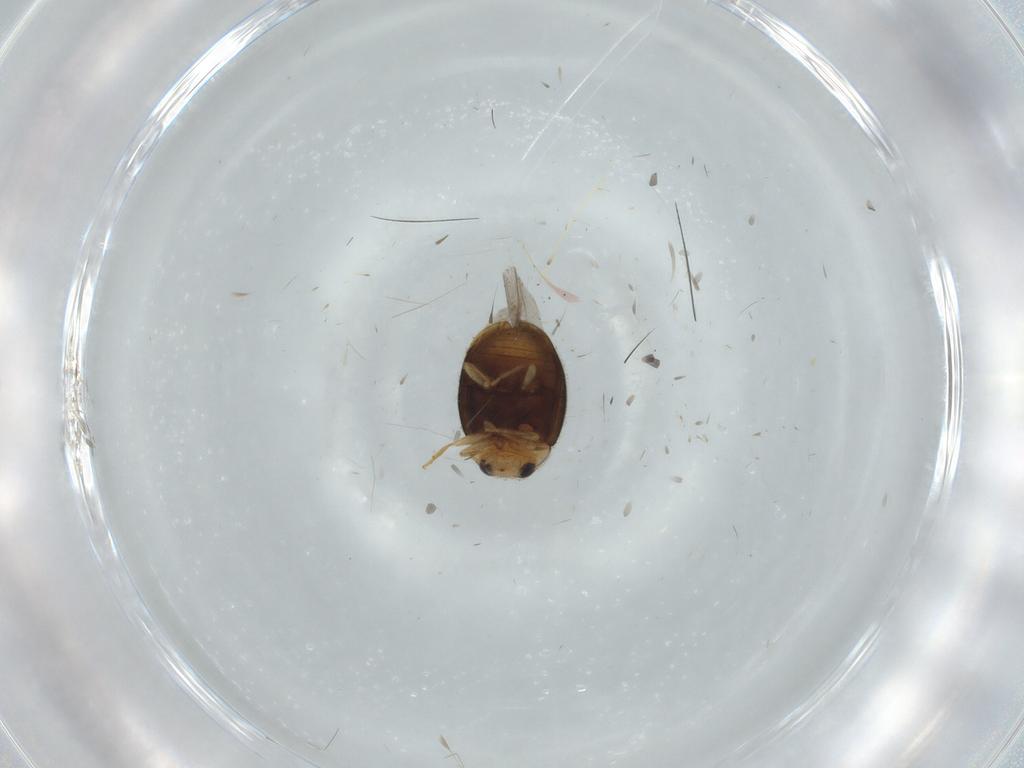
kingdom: Animalia
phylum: Arthropoda
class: Insecta
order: Coleoptera
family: Coccinellidae
